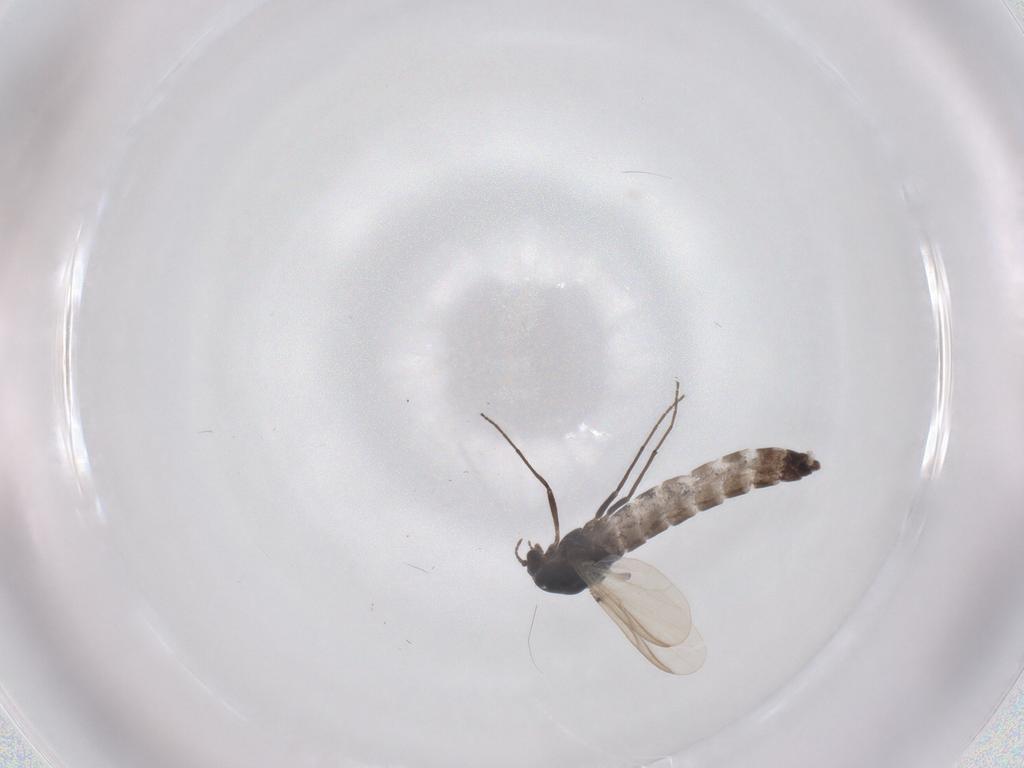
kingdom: Animalia
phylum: Arthropoda
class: Insecta
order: Diptera
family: Chironomidae
